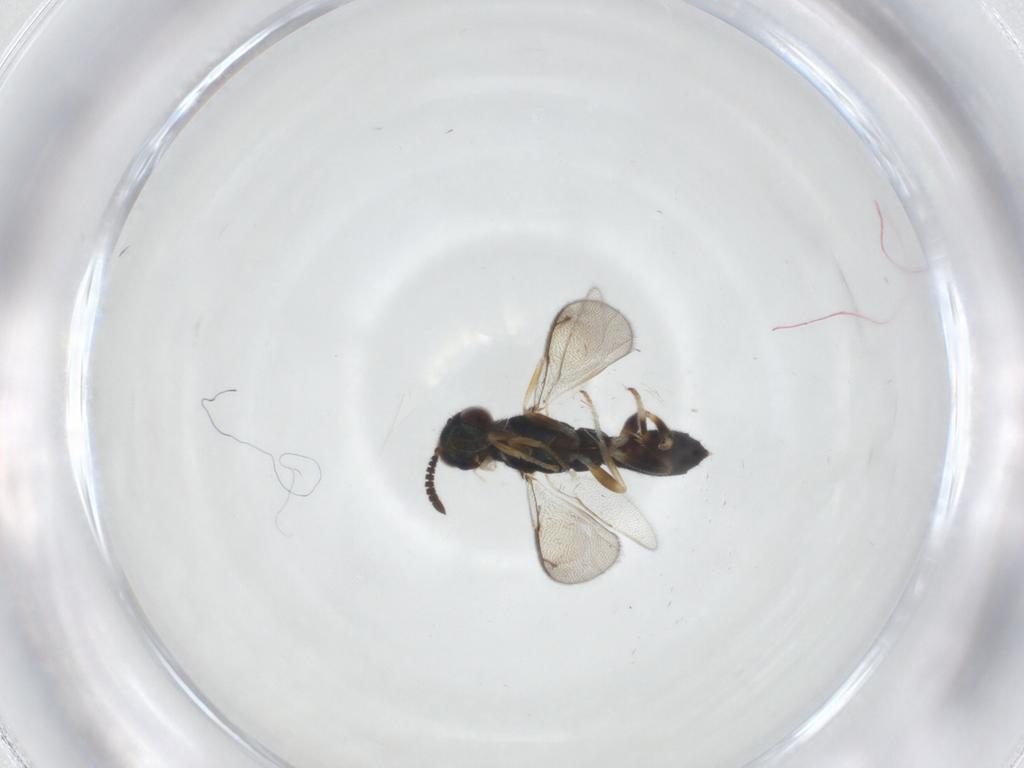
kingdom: Animalia
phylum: Arthropoda
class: Insecta
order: Hymenoptera
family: Cleonyminae
